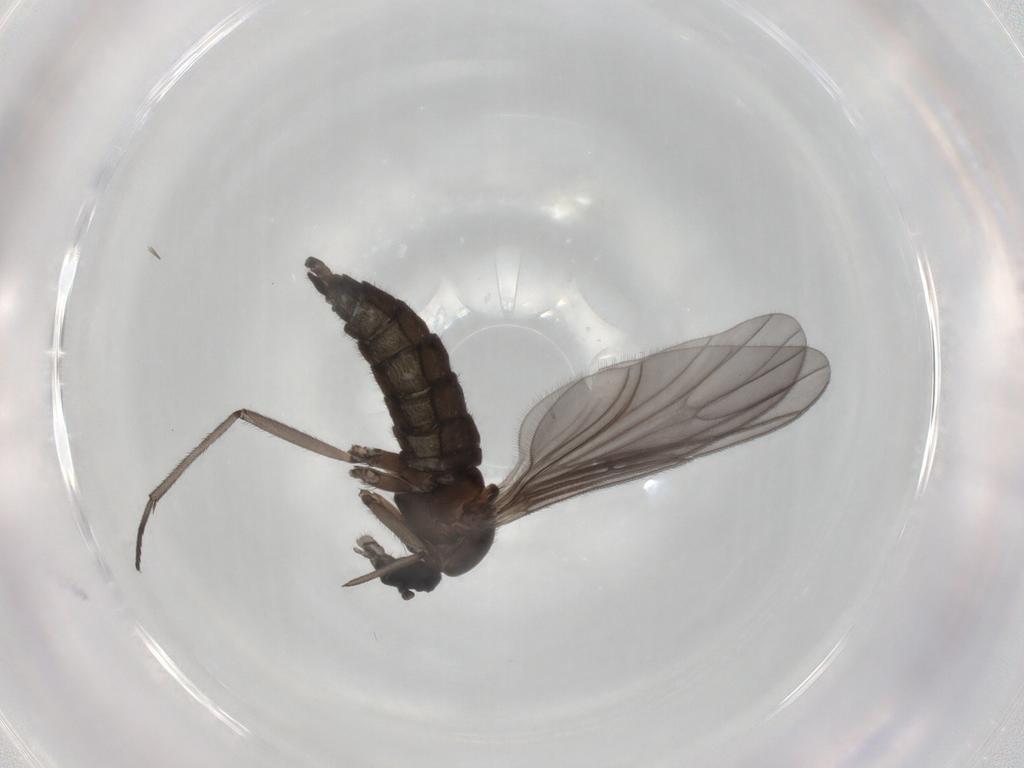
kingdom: Animalia
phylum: Arthropoda
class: Insecta
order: Diptera
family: Sciaridae
